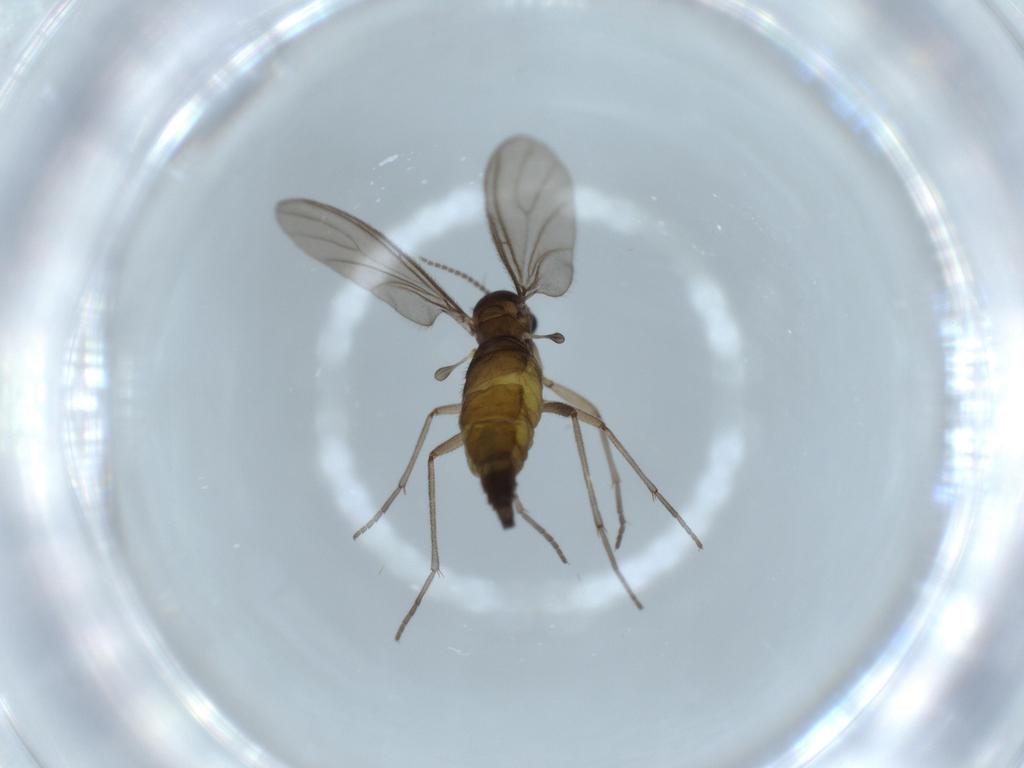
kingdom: Animalia
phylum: Arthropoda
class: Insecta
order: Diptera
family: Sciaridae
